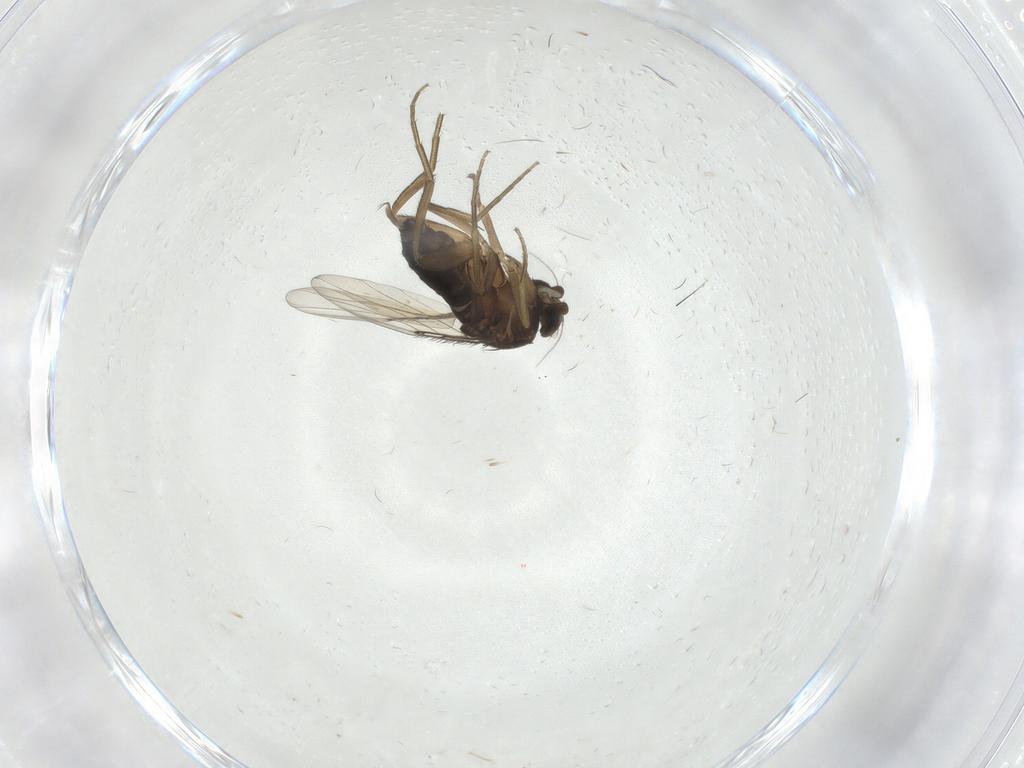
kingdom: Animalia
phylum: Arthropoda
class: Insecta
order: Diptera
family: Phoridae
